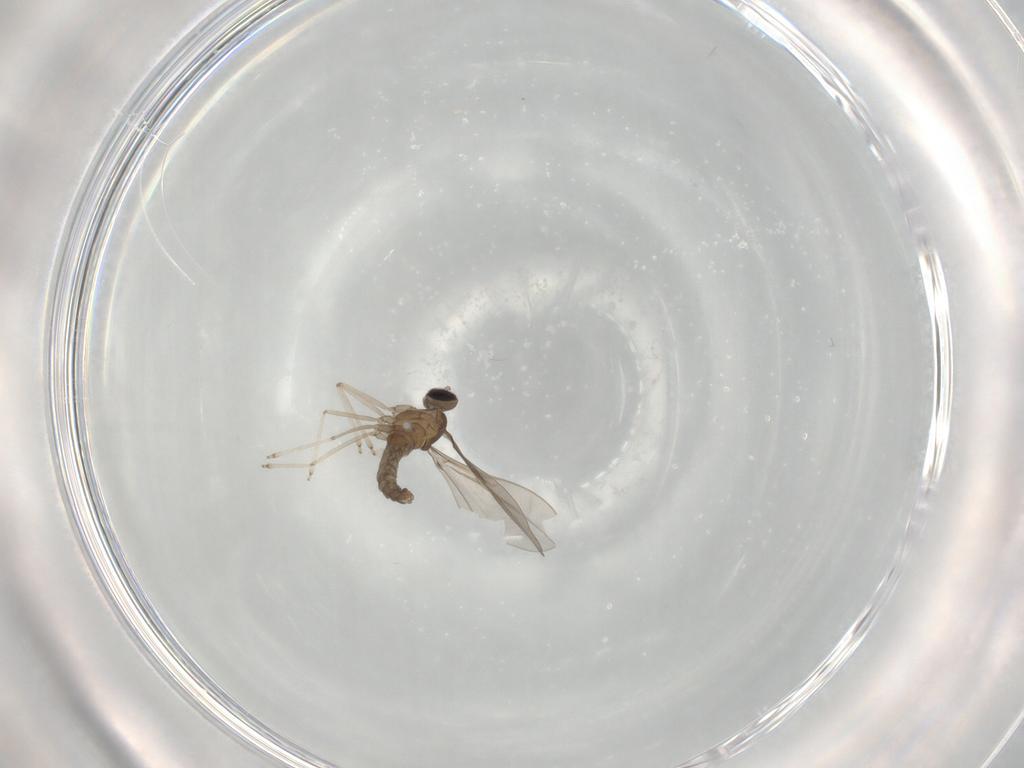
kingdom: Animalia
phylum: Arthropoda
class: Insecta
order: Diptera
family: Cecidomyiidae
